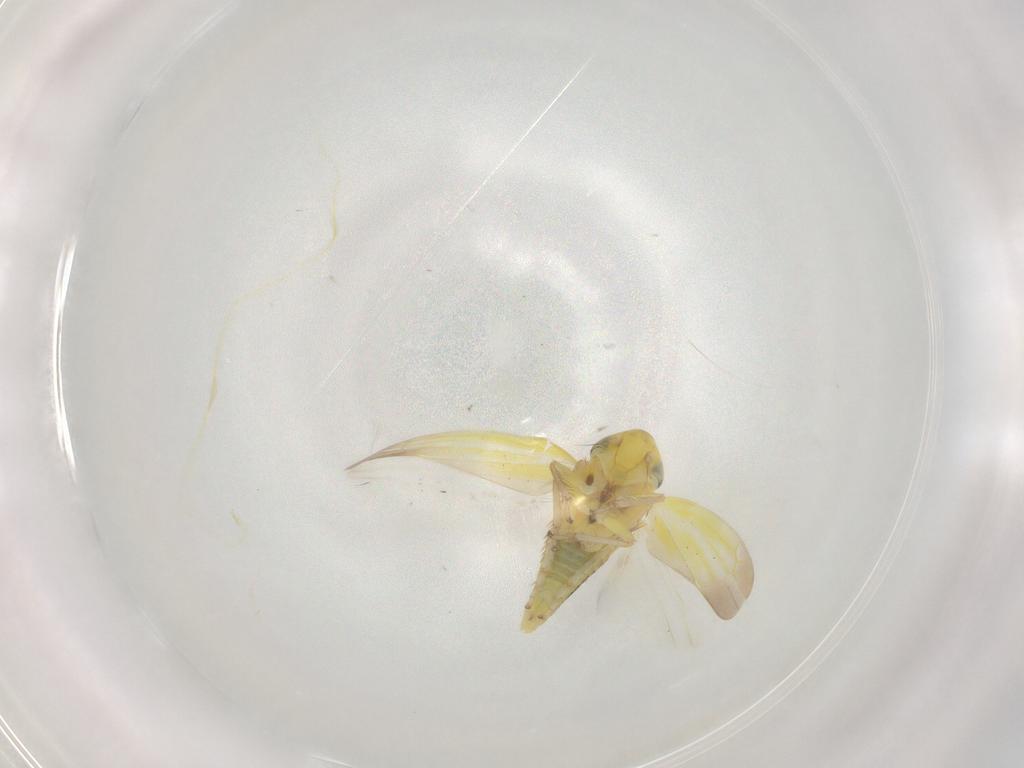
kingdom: Animalia
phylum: Arthropoda
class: Insecta
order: Hemiptera
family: Cicadellidae
